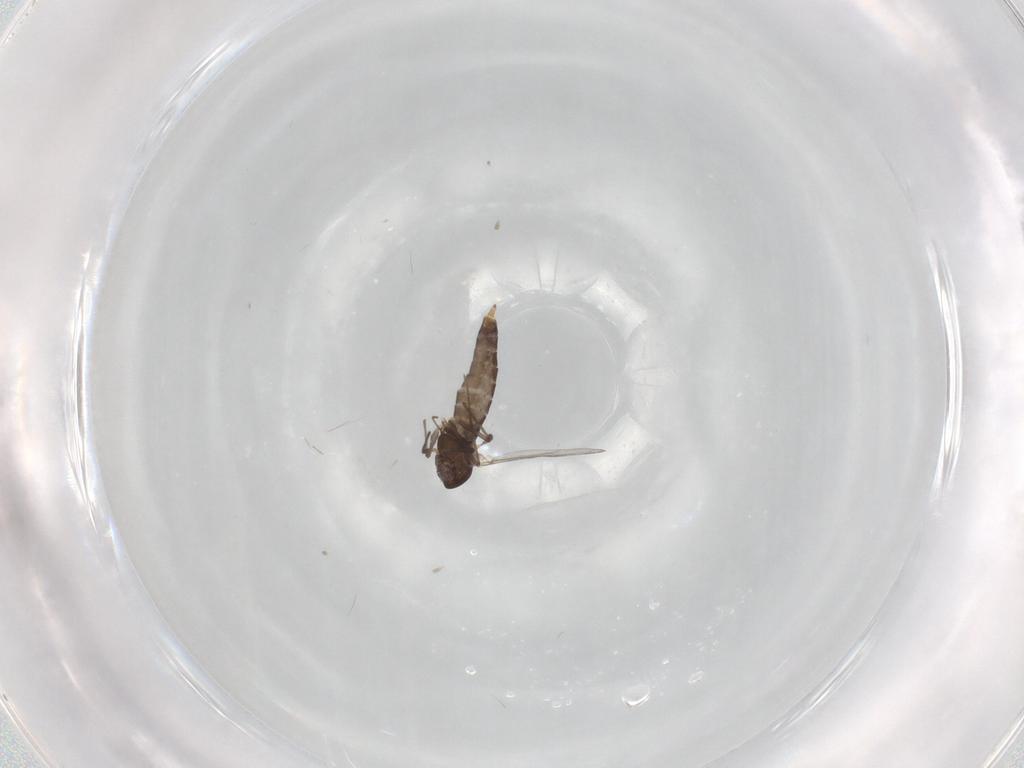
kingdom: Animalia
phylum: Arthropoda
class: Insecta
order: Diptera
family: Chironomidae
